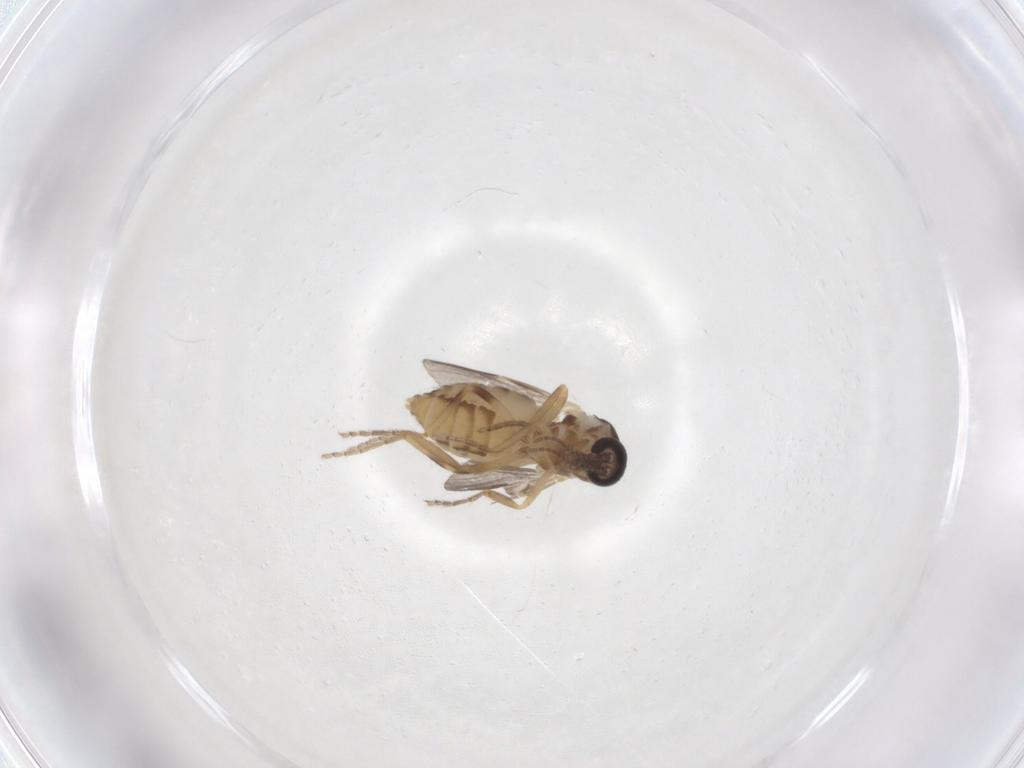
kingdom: Animalia
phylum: Arthropoda
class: Insecta
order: Diptera
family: Ceratopogonidae
